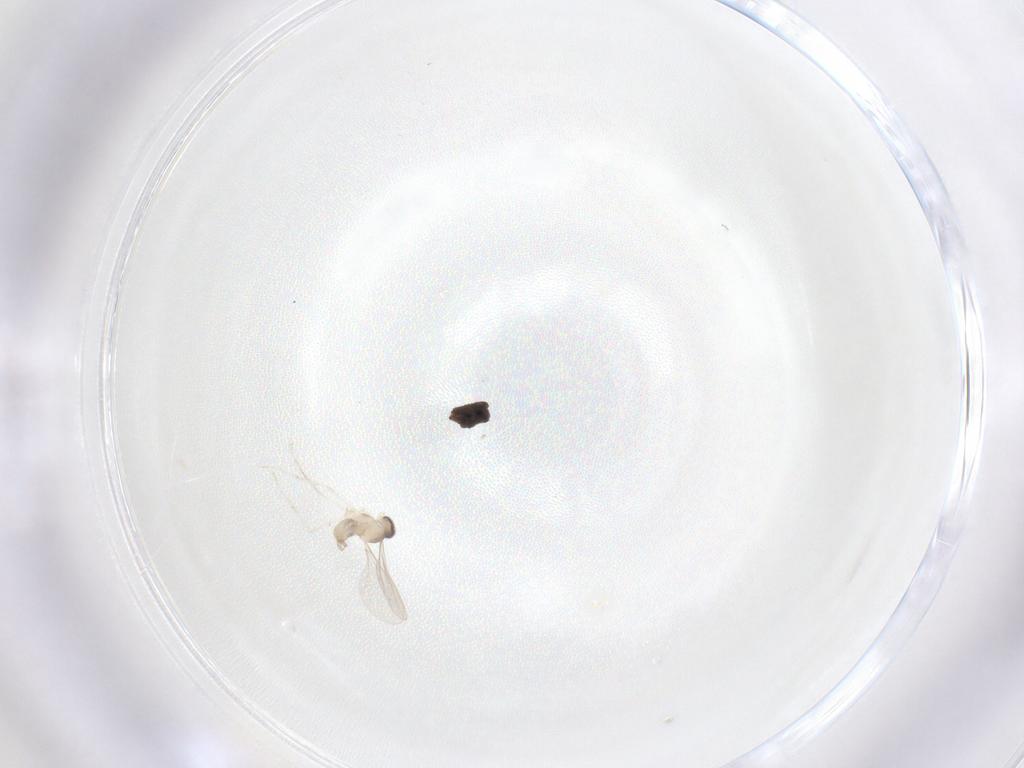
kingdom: Animalia
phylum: Arthropoda
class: Insecta
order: Diptera
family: Cecidomyiidae
